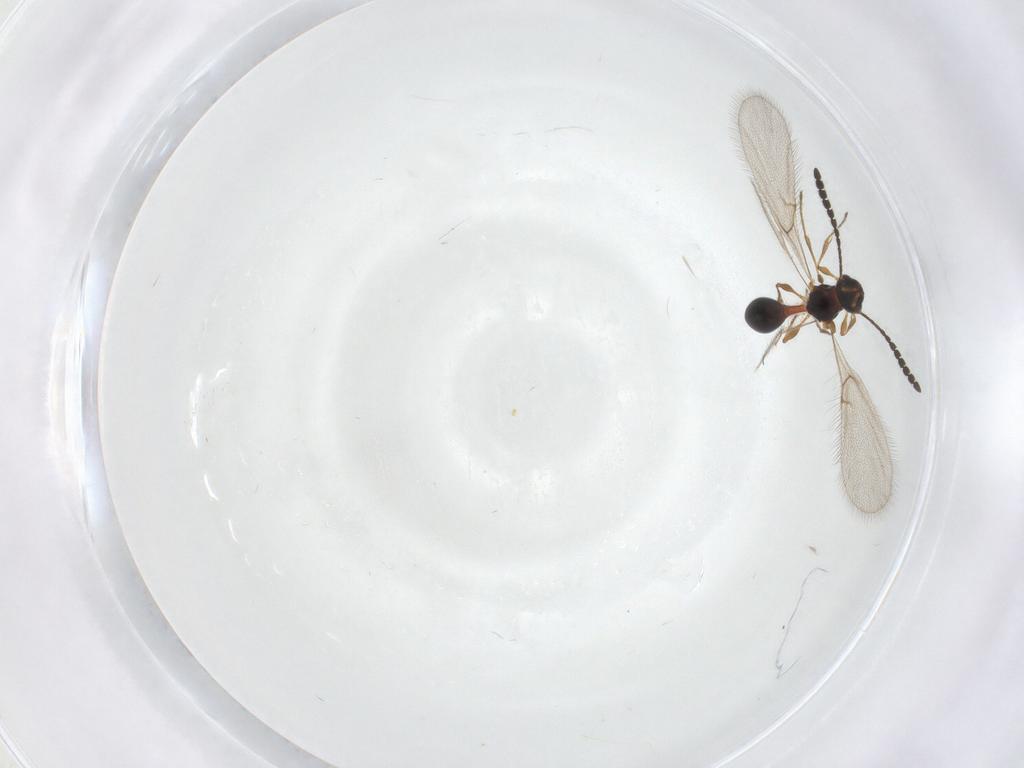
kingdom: Animalia
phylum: Arthropoda
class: Insecta
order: Hymenoptera
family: Diapriidae
